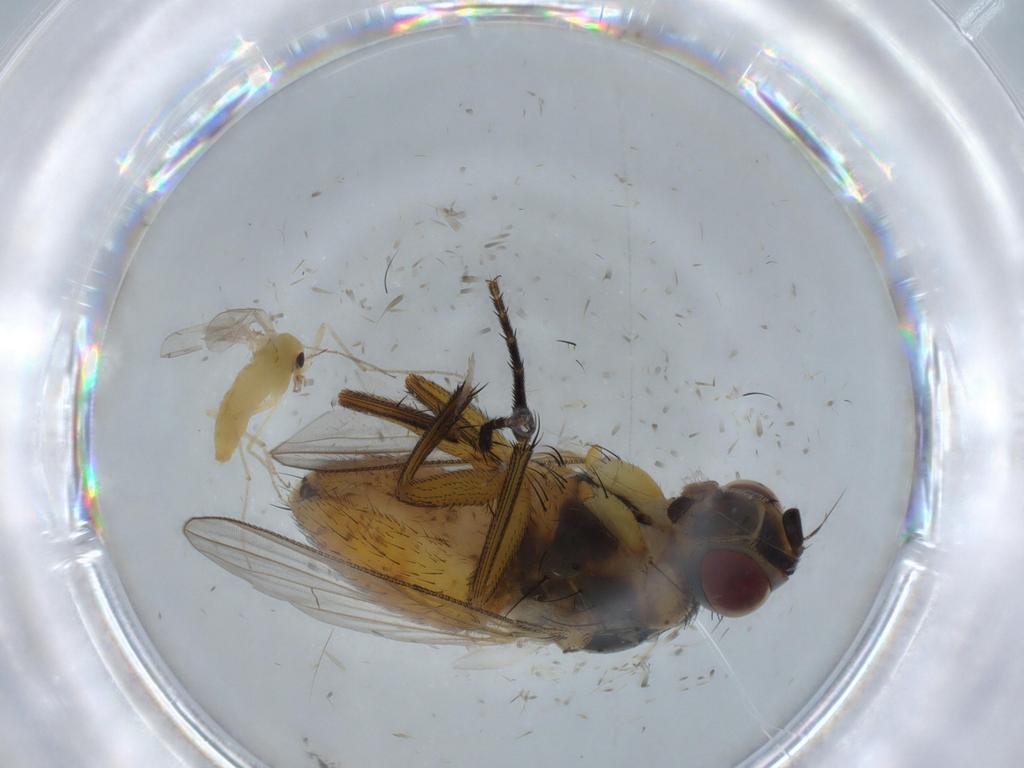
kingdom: Animalia
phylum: Arthropoda
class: Insecta
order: Diptera
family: Muscidae
